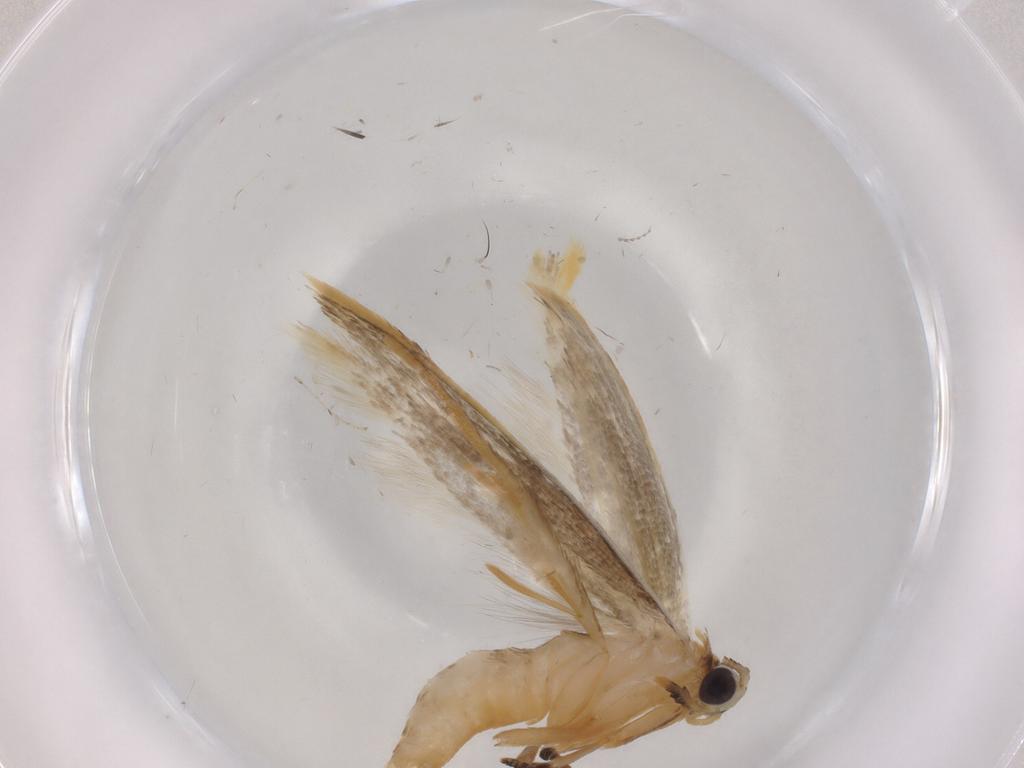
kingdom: Animalia
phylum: Arthropoda
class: Insecta
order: Lepidoptera
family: Tineidae
